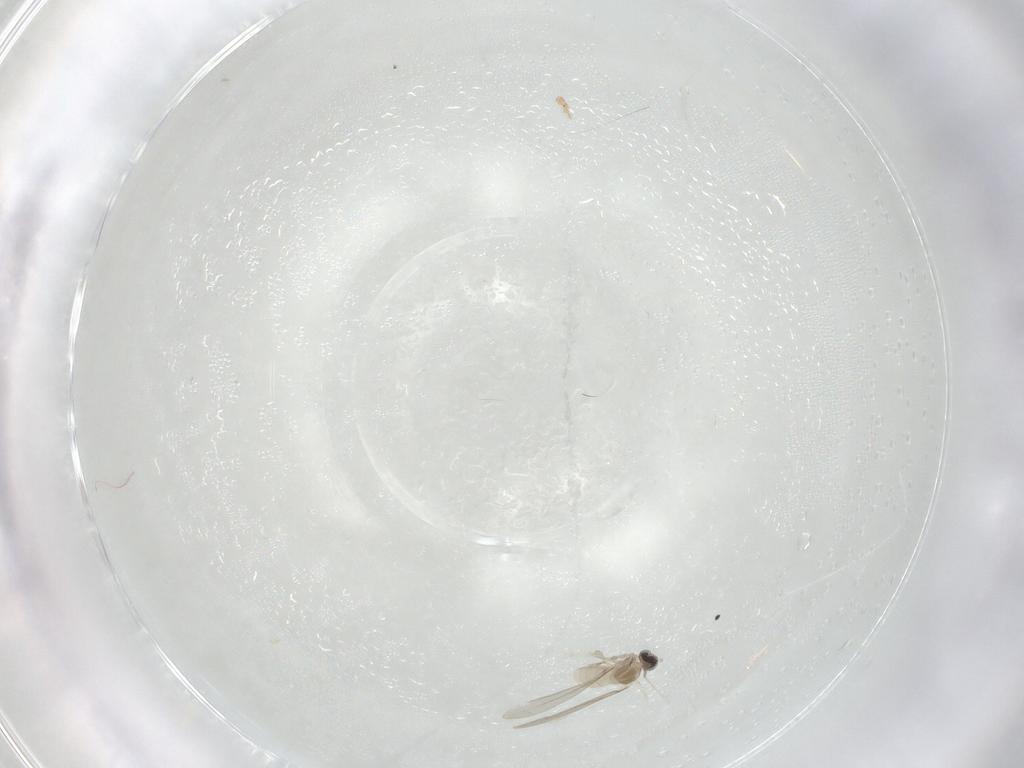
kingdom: Animalia
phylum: Arthropoda
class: Insecta
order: Diptera
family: Cecidomyiidae
